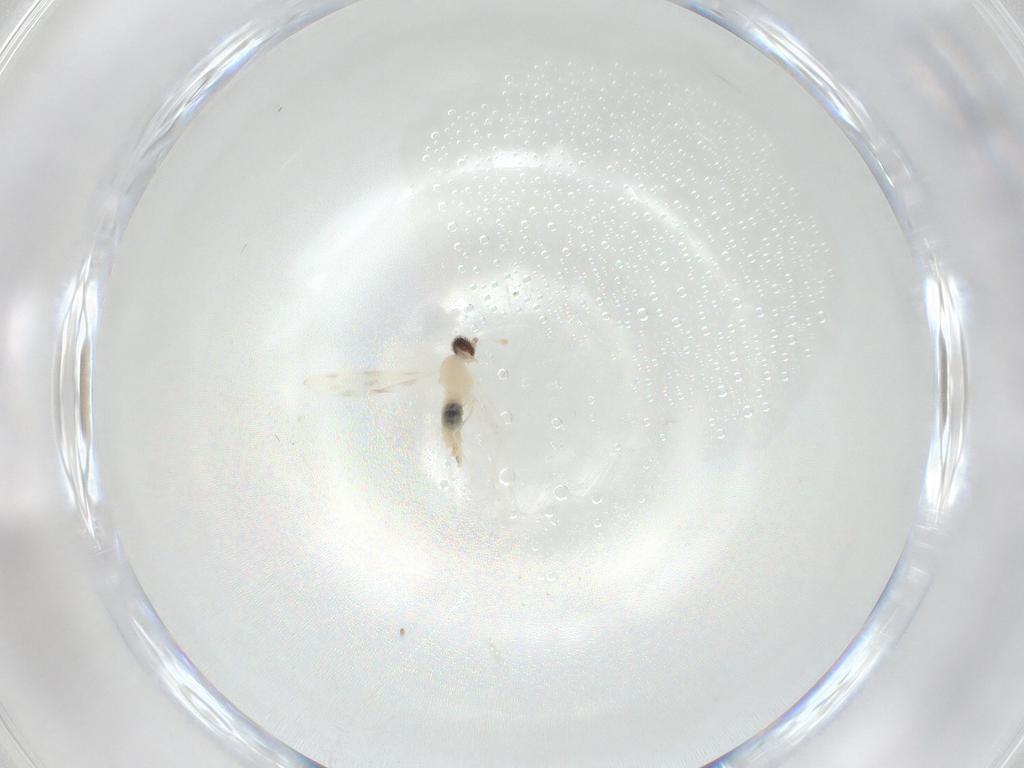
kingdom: Animalia
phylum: Arthropoda
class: Insecta
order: Diptera
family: Cecidomyiidae
